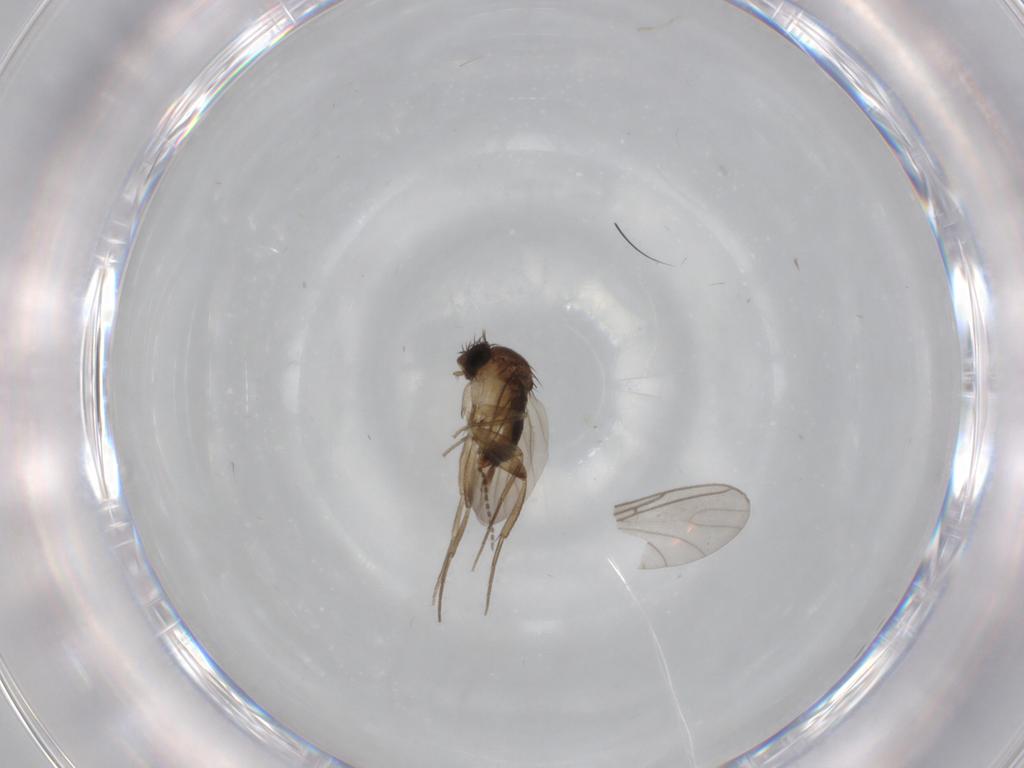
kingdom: Animalia
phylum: Arthropoda
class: Insecta
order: Diptera
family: Phoridae
